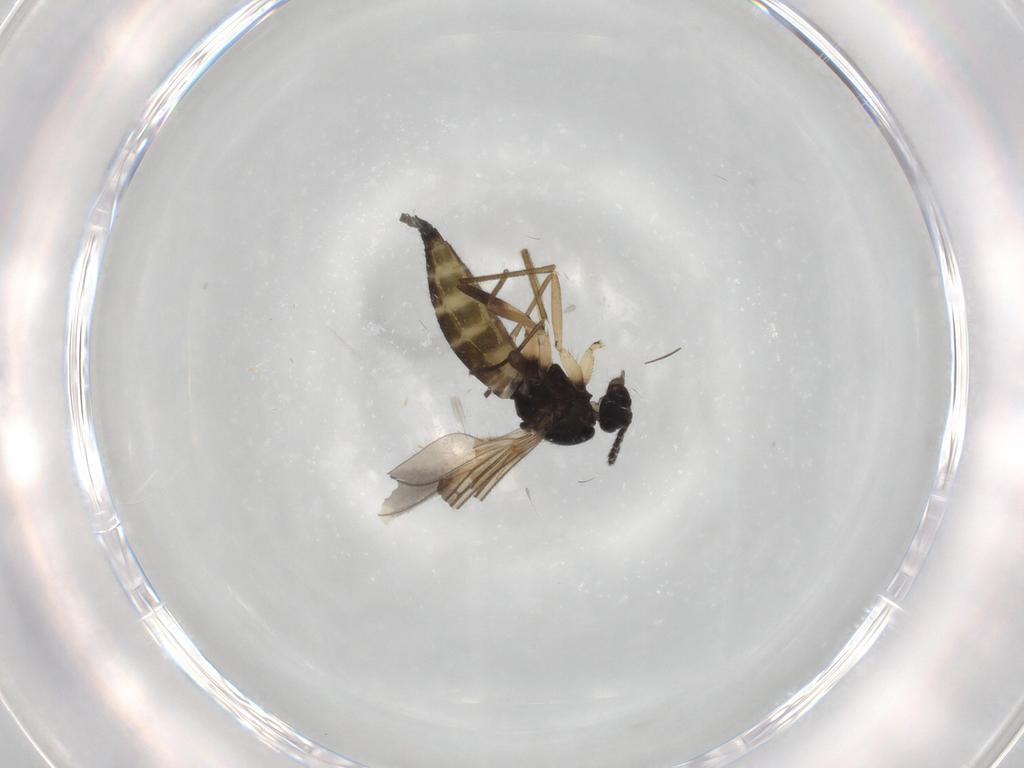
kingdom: Animalia
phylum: Arthropoda
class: Insecta
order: Diptera
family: Sciaridae
